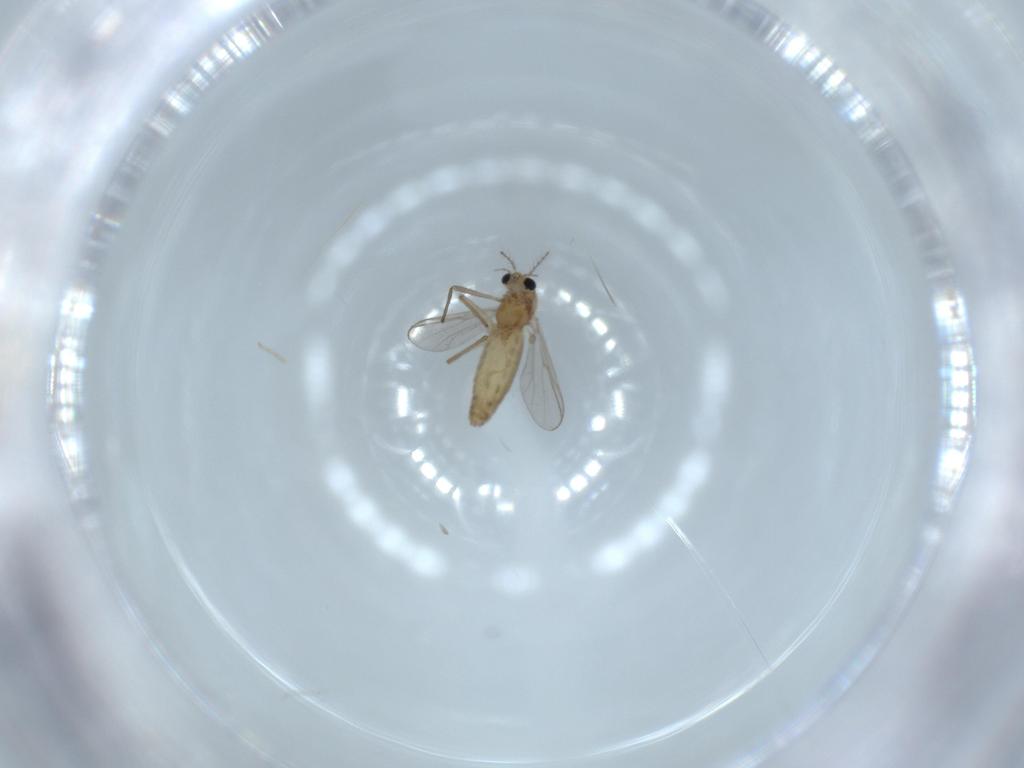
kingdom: Animalia
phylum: Arthropoda
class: Insecta
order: Diptera
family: Chironomidae
